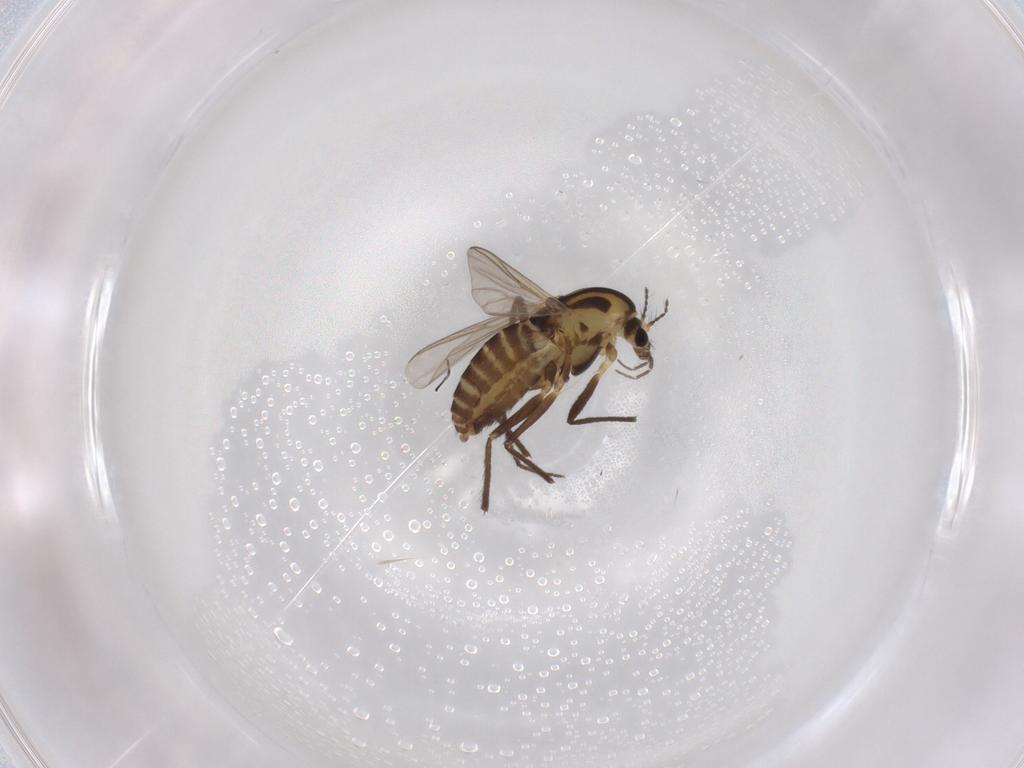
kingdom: Animalia
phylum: Arthropoda
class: Insecta
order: Diptera
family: Chironomidae
